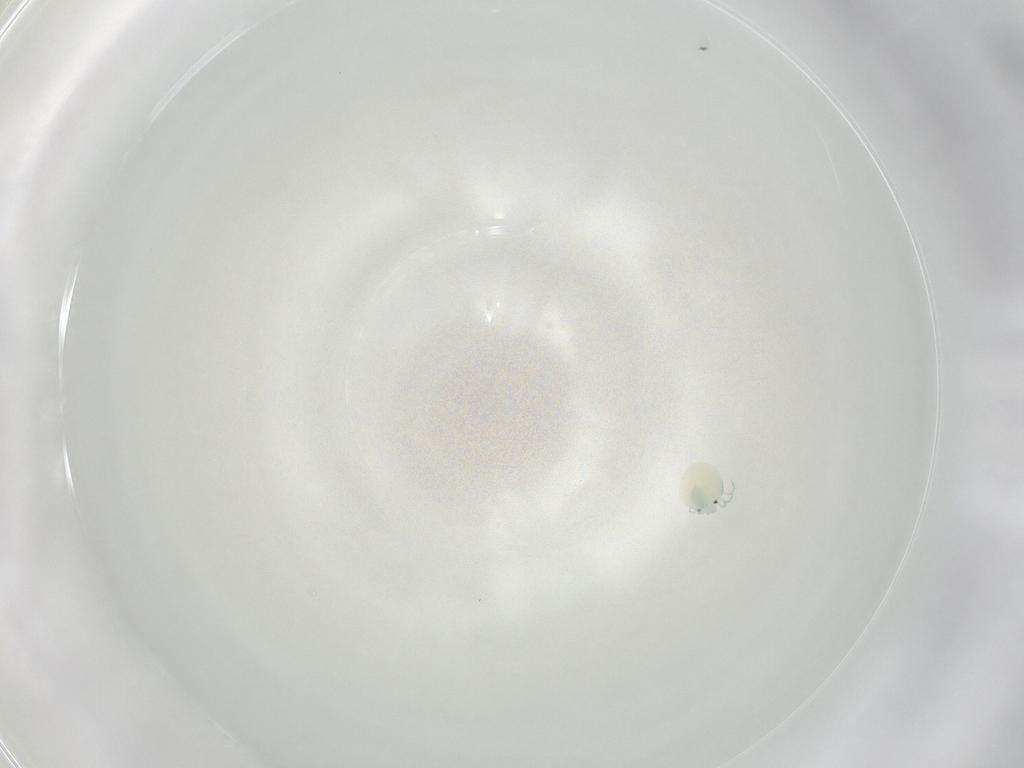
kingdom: Animalia
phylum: Arthropoda
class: Arachnida
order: Trombidiformes
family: Arrenuridae
